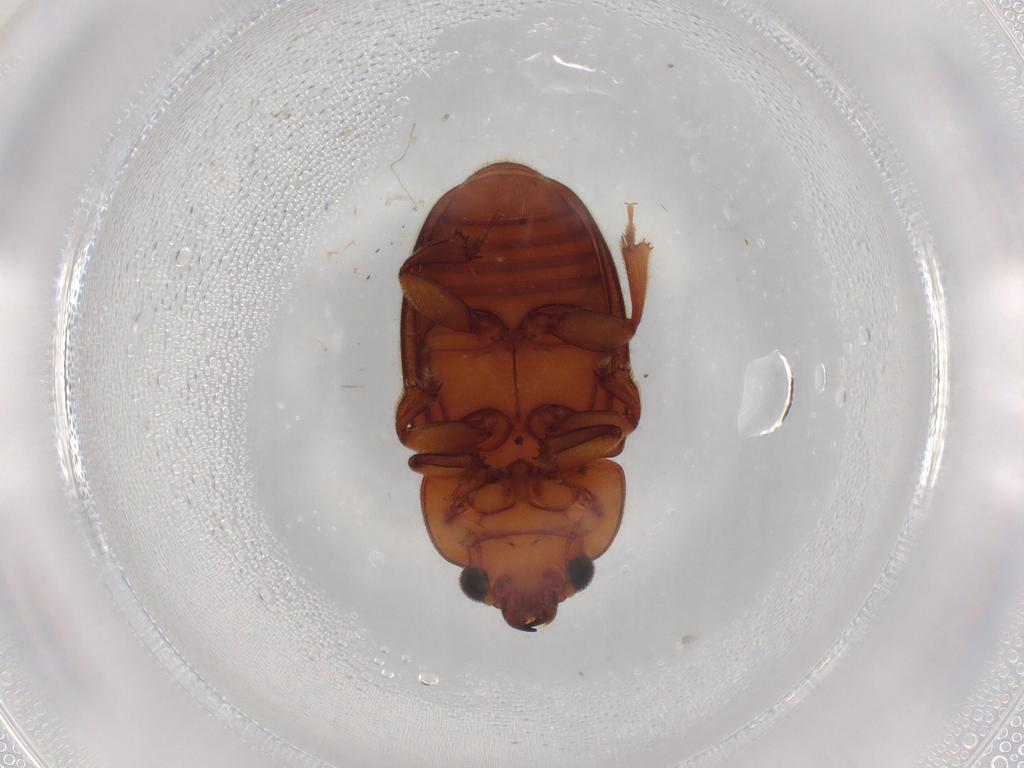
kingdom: Animalia
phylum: Arthropoda
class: Insecta
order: Coleoptera
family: Nitidulidae
